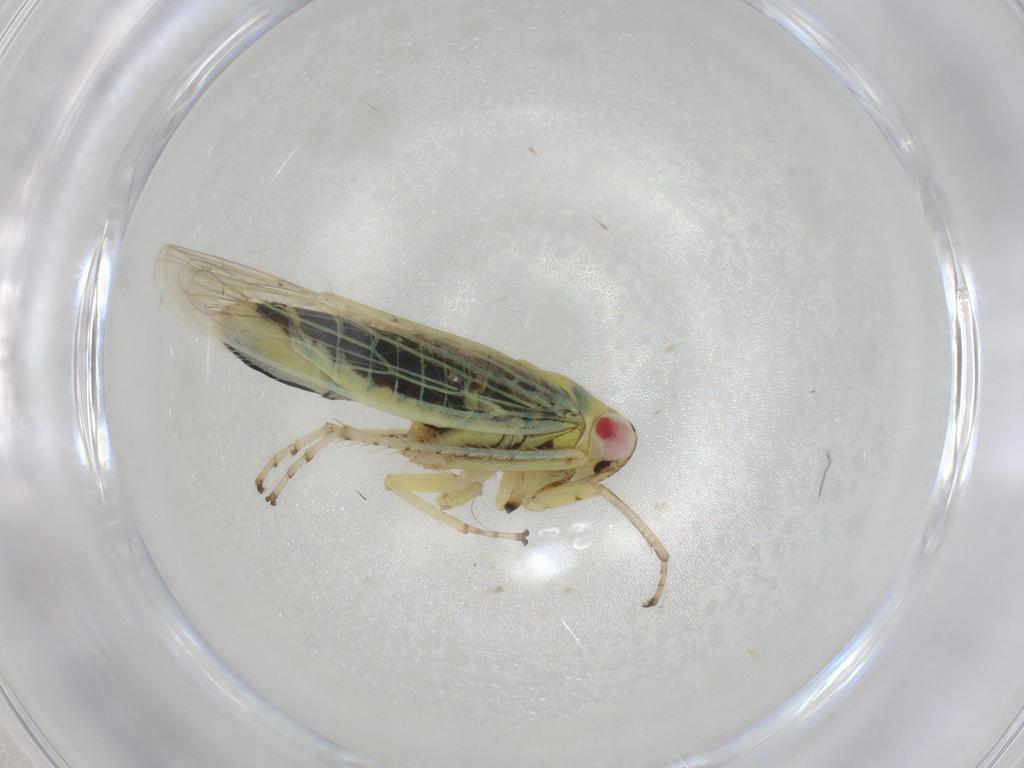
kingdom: Animalia
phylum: Arthropoda
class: Insecta
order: Hemiptera
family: Cicadellidae
